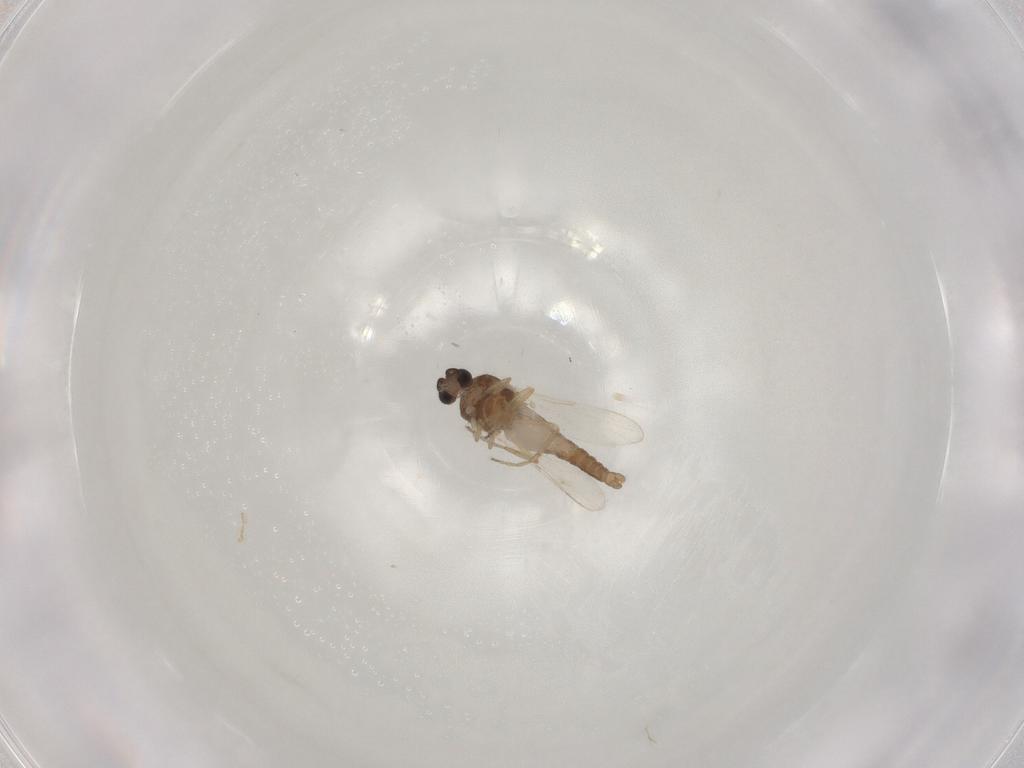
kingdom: Animalia
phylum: Arthropoda
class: Insecta
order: Diptera
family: Ceratopogonidae
